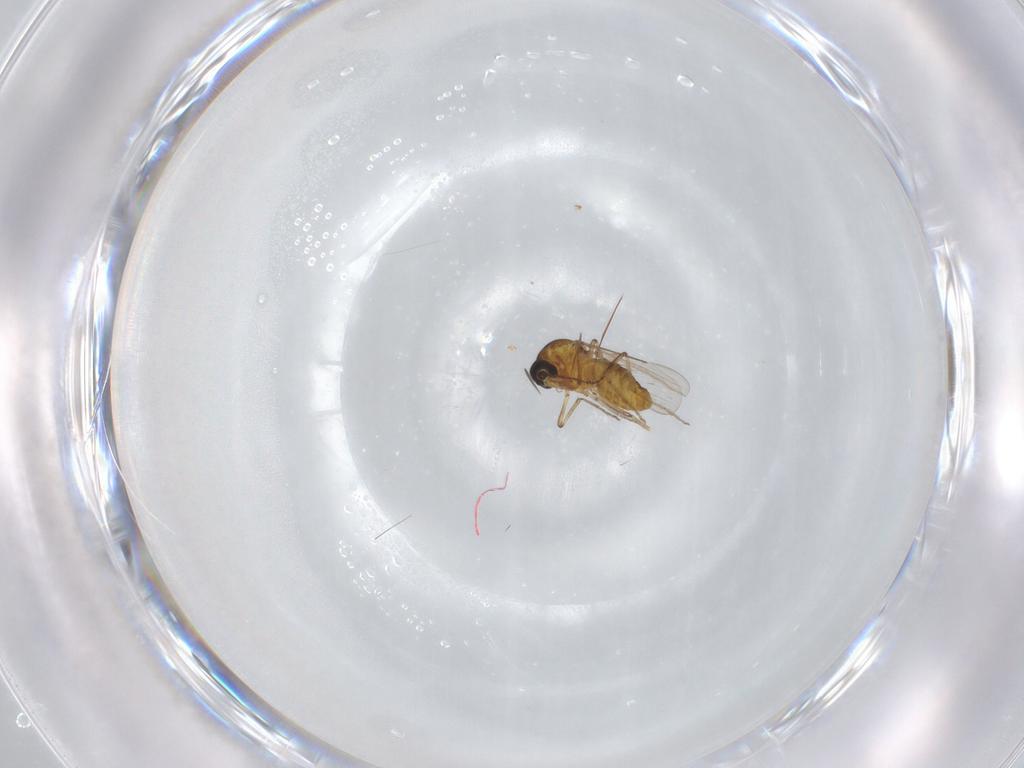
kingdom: Animalia
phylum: Arthropoda
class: Insecta
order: Diptera
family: Ceratopogonidae
